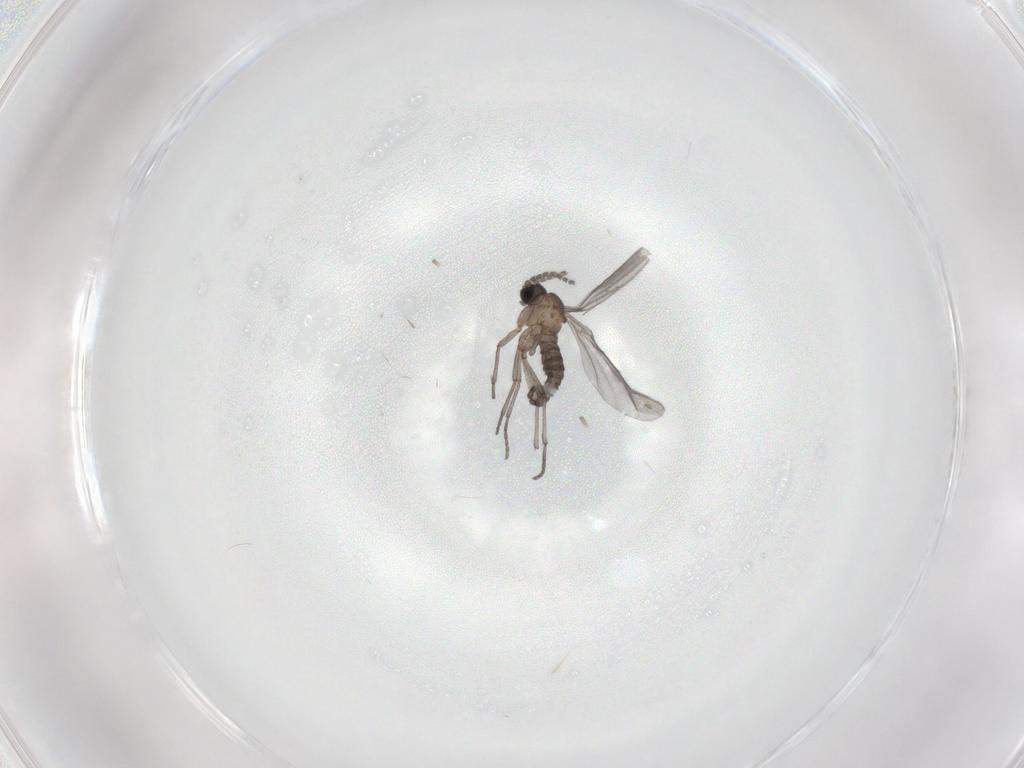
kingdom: Animalia
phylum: Arthropoda
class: Insecta
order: Diptera
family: Sciaridae
